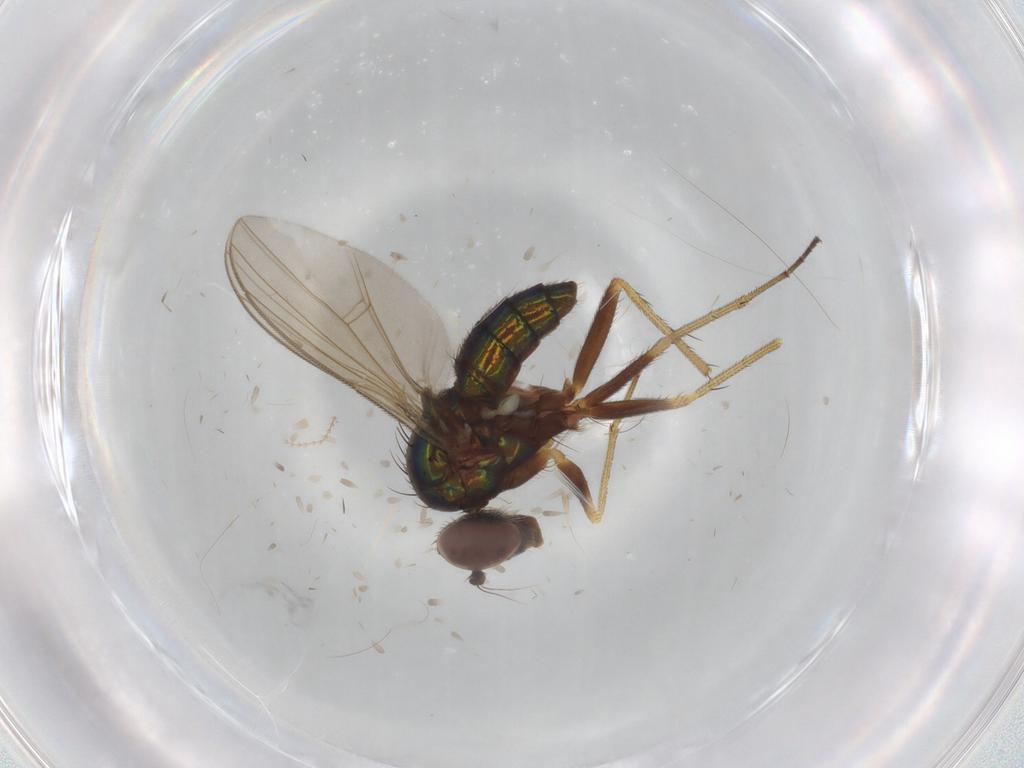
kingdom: Animalia
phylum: Arthropoda
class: Insecta
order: Diptera
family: Dolichopodidae
